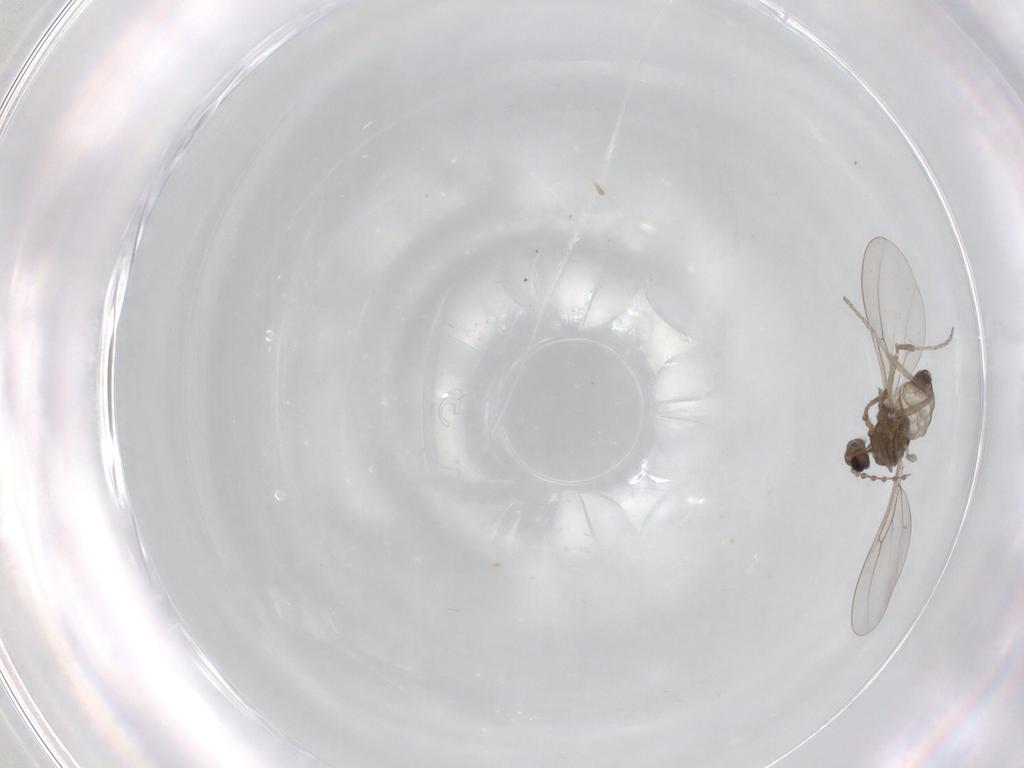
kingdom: Animalia
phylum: Arthropoda
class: Insecta
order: Diptera
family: Cecidomyiidae
